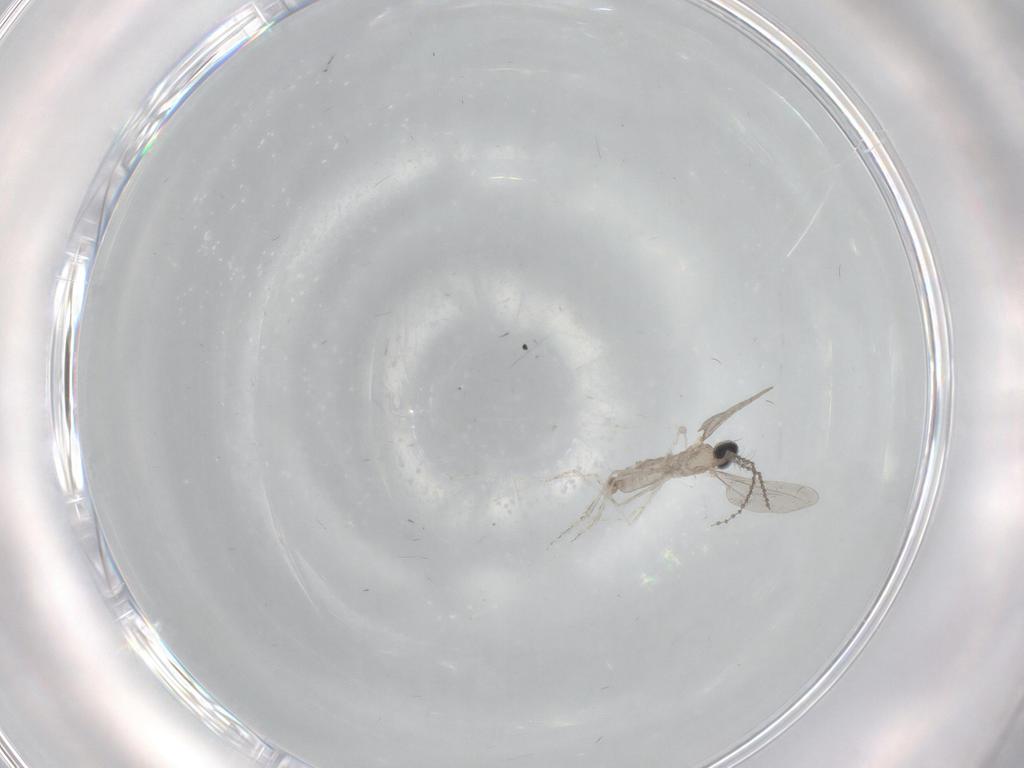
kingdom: Animalia
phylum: Arthropoda
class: Insecta
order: Diptera
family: Cecidomyiidae
